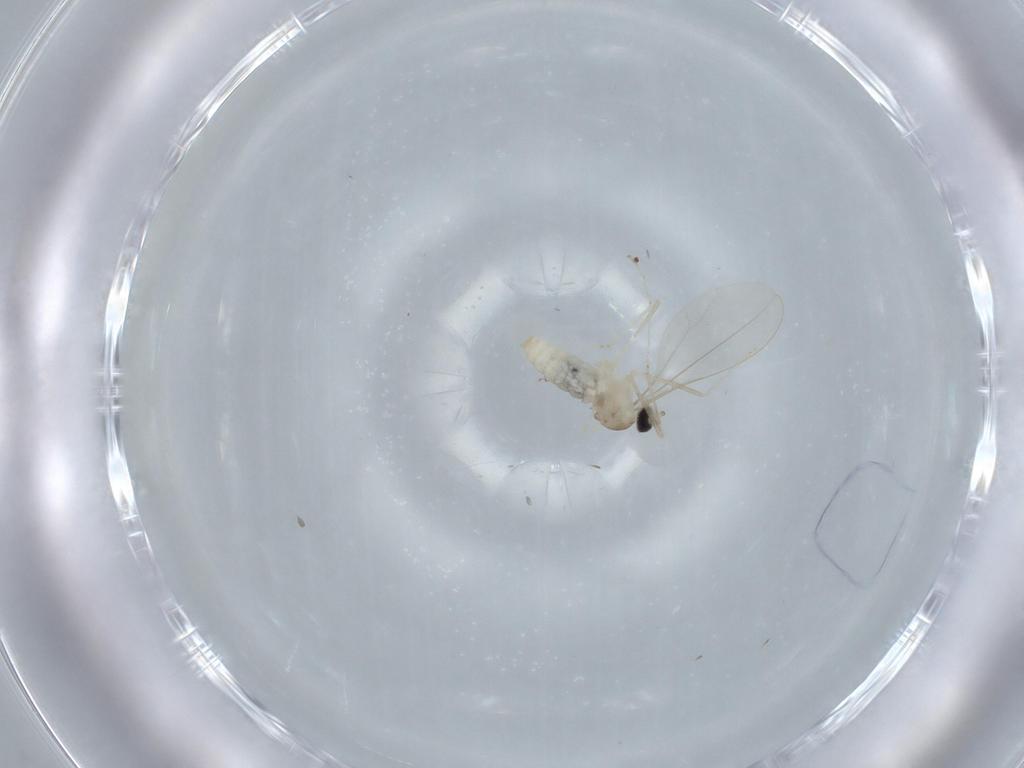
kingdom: Animalia
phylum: Arthropoda
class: Insecta
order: Diptera
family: Cecidomyiidae
